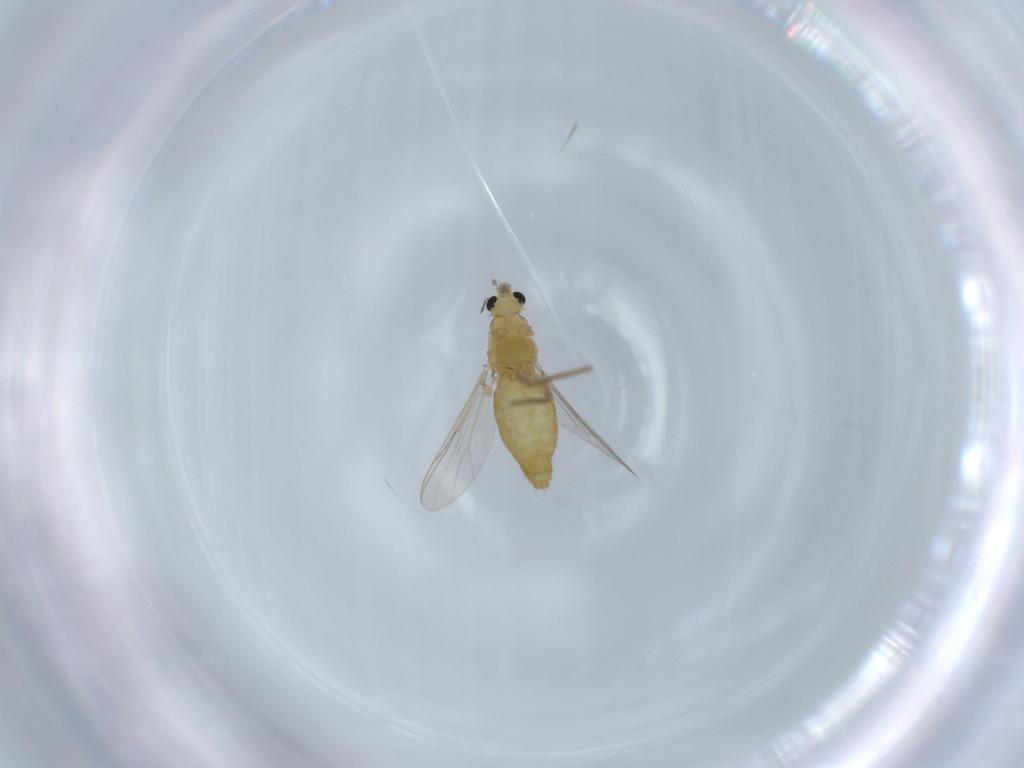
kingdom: Animalia
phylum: Arthropoda
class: Insecta
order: Diptera
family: Chironomidae
